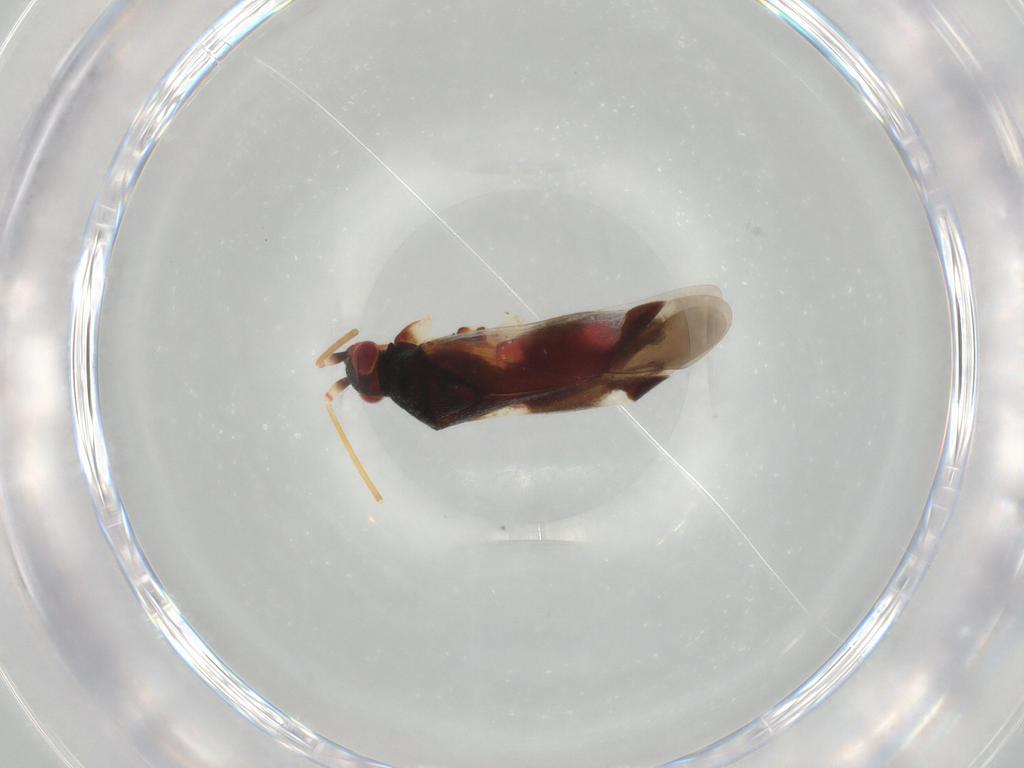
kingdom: Animalia
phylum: Arthropoda
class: Insecta
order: Hemiptera
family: Miridae
